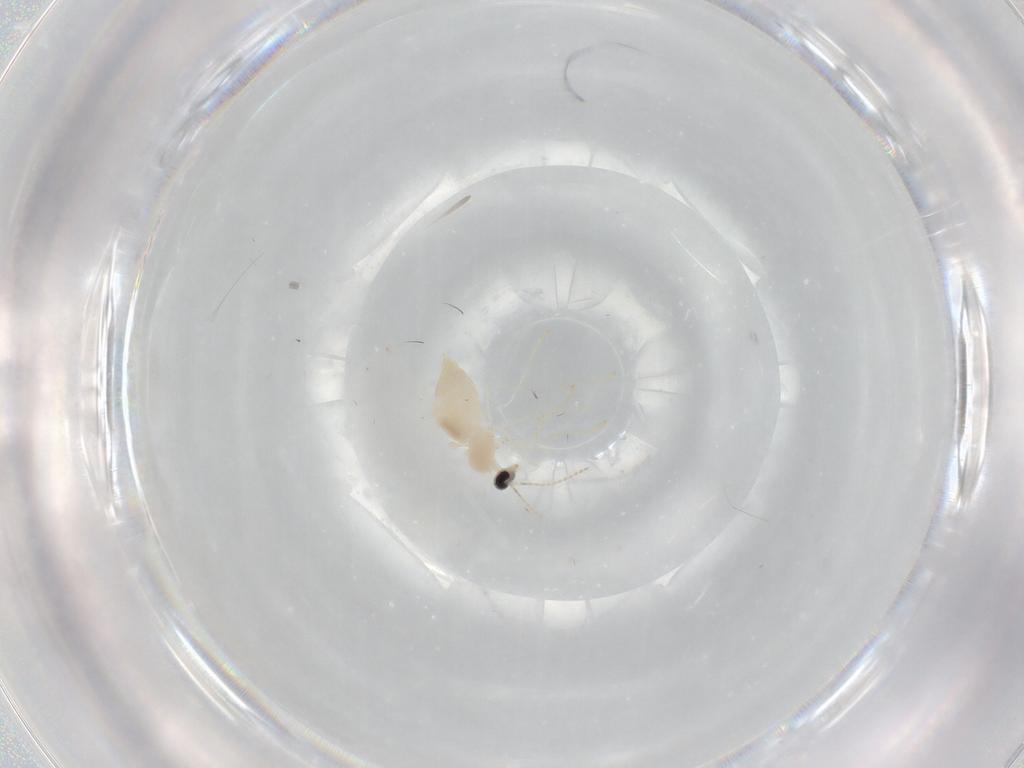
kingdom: Animalia
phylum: Arthropoda
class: Insecta
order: Diptera
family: Cecidomyiidae
